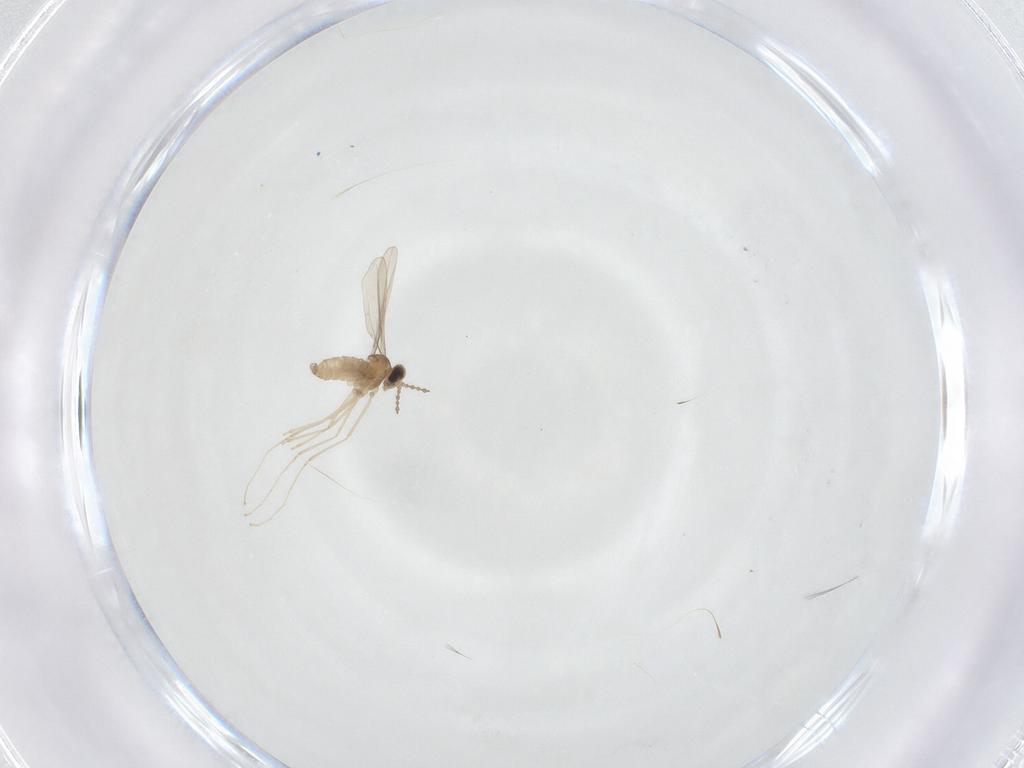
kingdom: Animalia
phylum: Arthropoda
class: Insecta
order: Diptera
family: Cecidomyiidae
